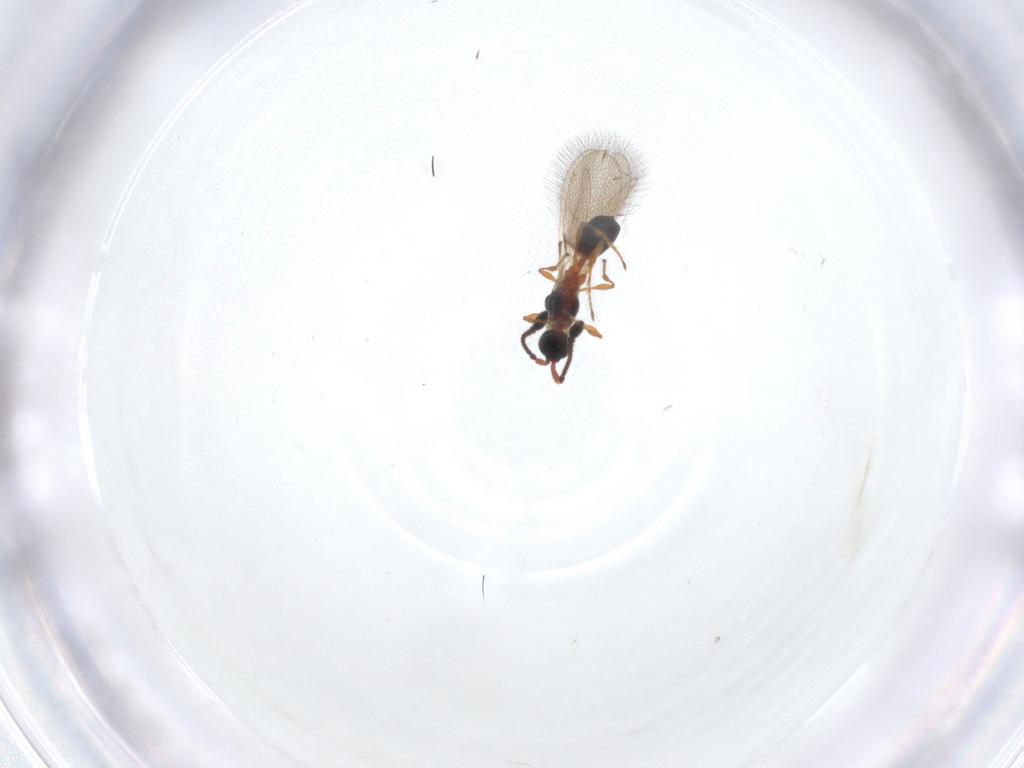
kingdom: Animalia
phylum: Arthropoda
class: Insecta
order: Hymenoptera
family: Diapriidae
